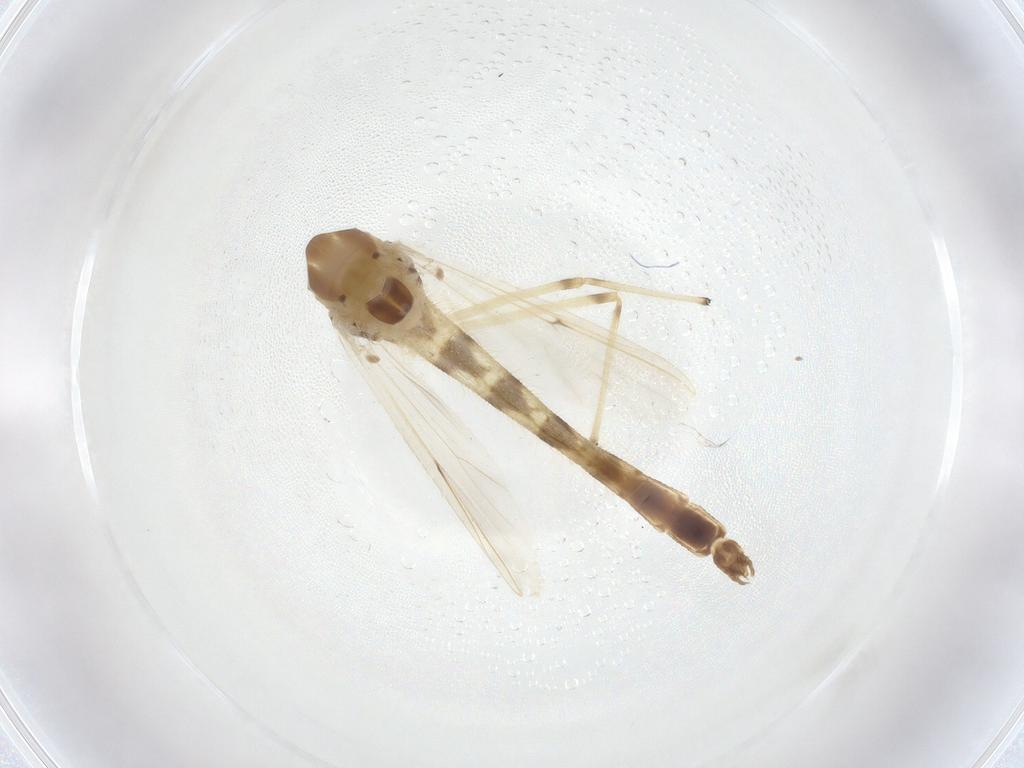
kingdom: Animalia
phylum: Arthropoda
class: Insecta
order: Diptera
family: Chironomidae
